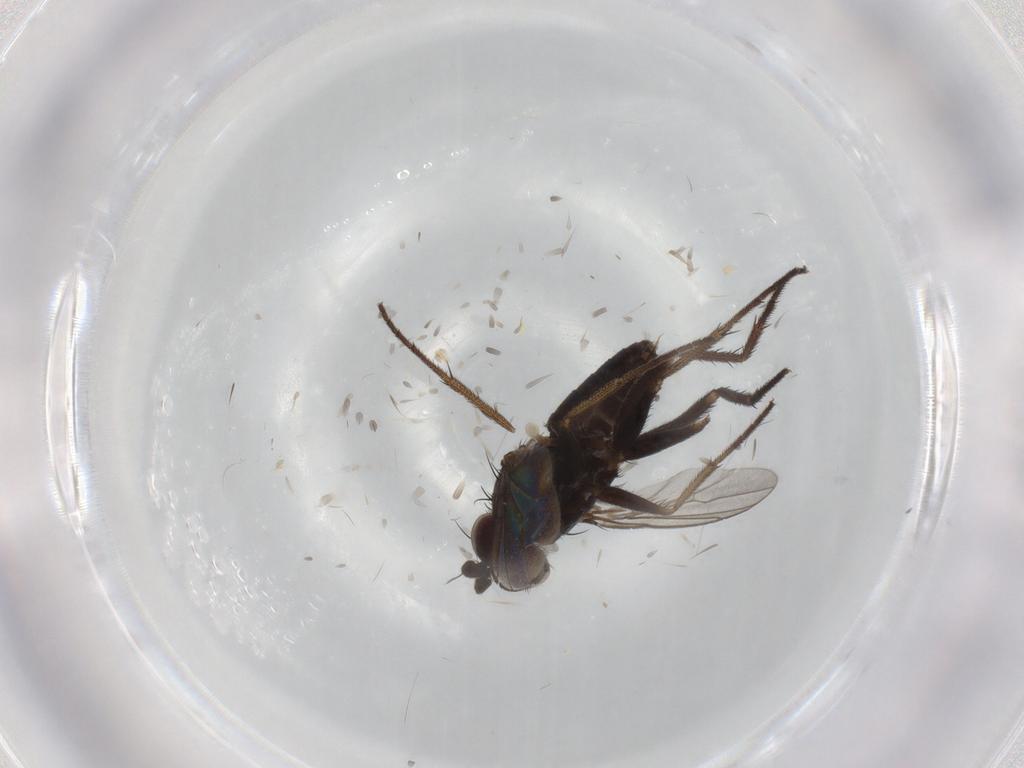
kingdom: Animalia
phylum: Arthropoda
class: Insecta
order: Diptera
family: Dolichopodidae
